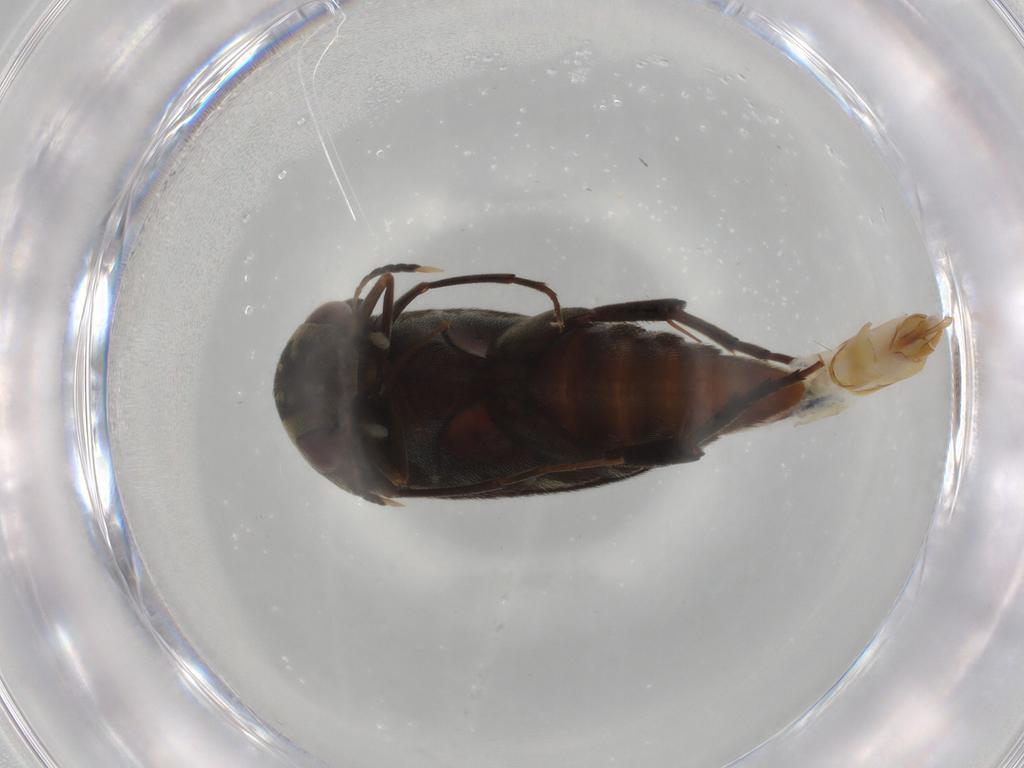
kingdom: Animalia
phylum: Arthropoda
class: Insecta
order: Coleoptera
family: Mordellidae
